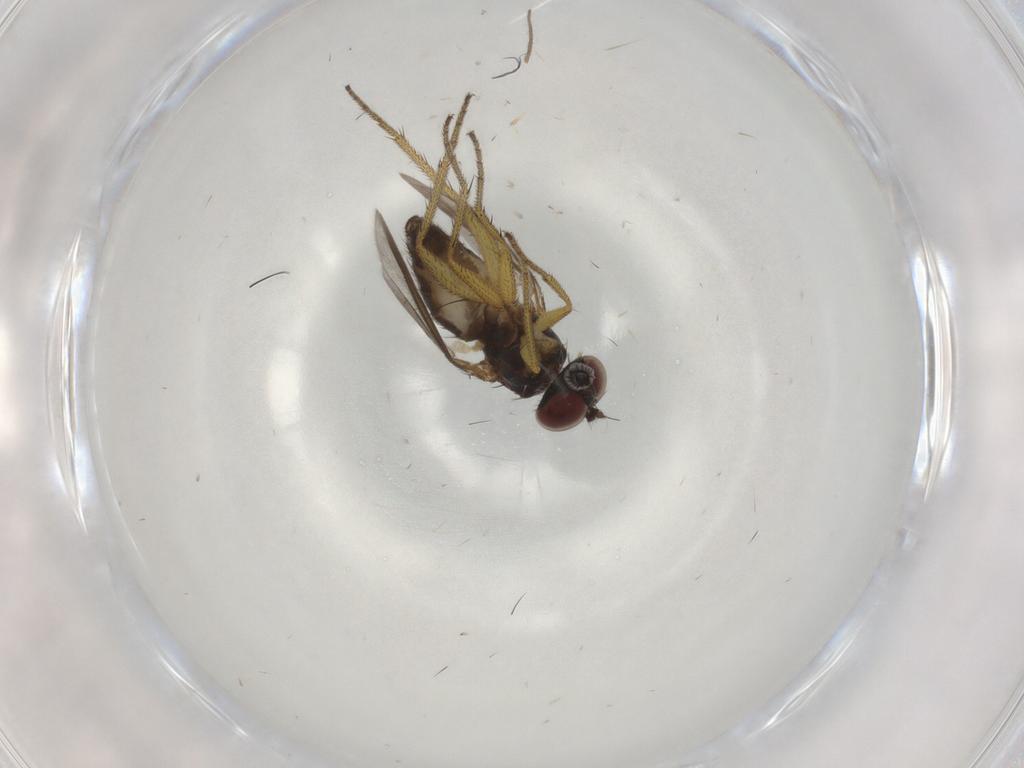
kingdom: Animalia
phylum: Arthropoda
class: Insecta
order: Diptera
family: Dolichopodidae
